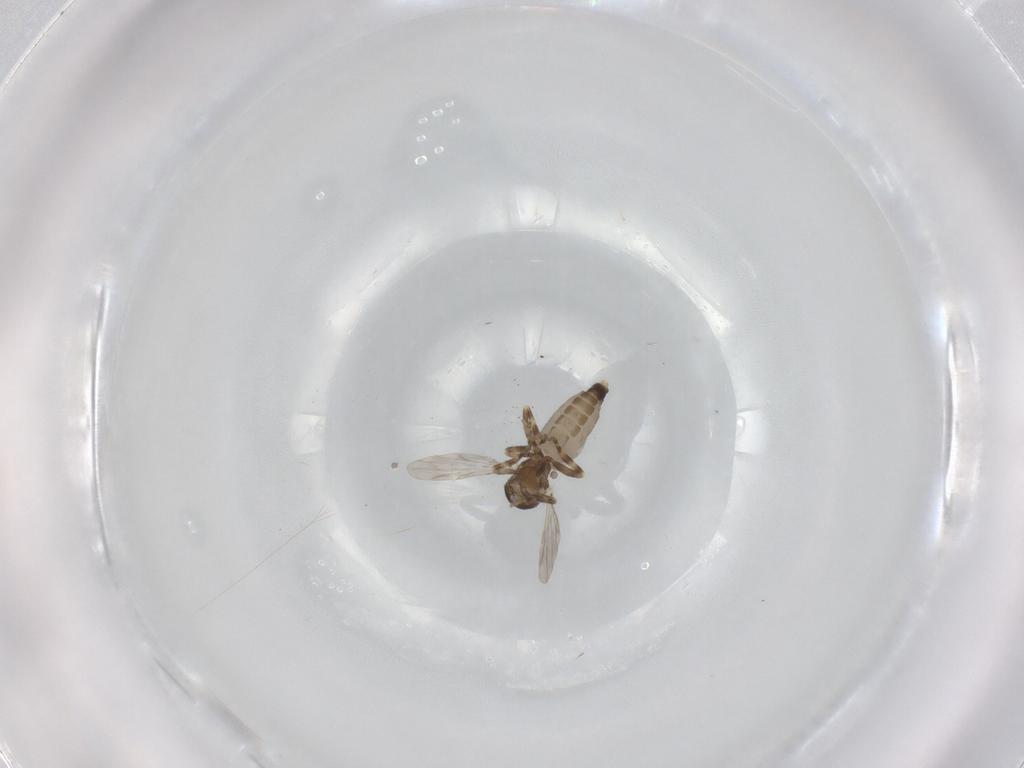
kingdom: Animalia
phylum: Arthropoda
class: Insecta
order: Diptera
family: Ceratopogonidae
